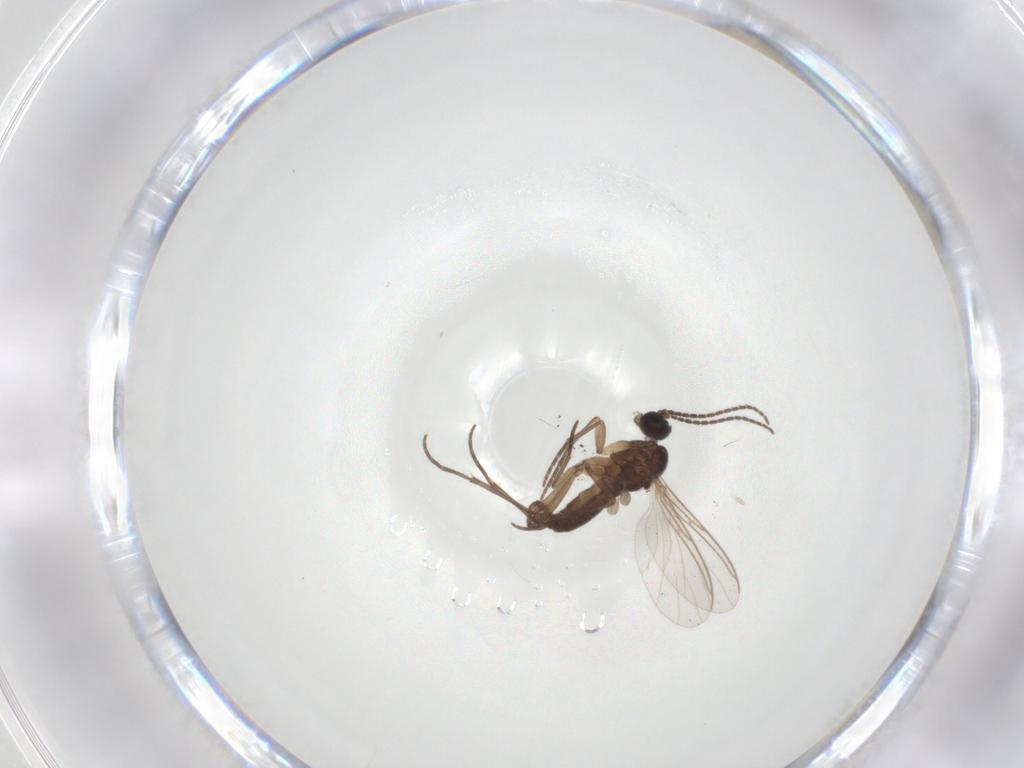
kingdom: Animalia
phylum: Arthropoda
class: Insecta
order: Diptera
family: Sciaridae
